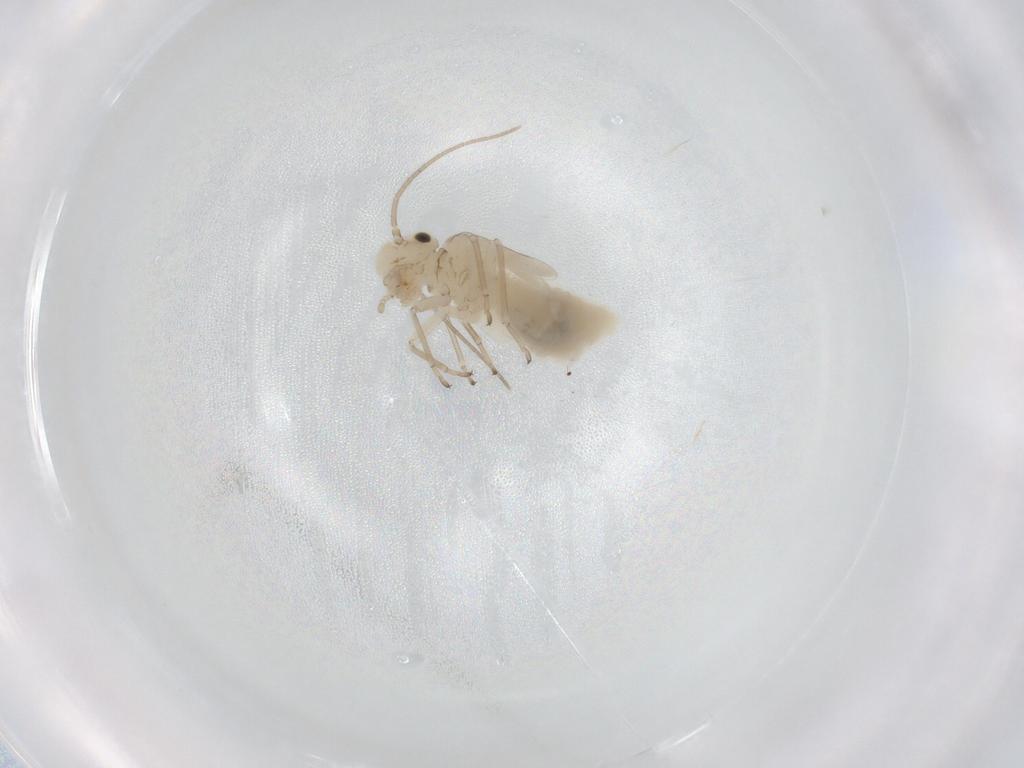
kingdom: Animalia
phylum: Arthropoda
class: Insecta
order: Psocodea
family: Caeciliusidae
